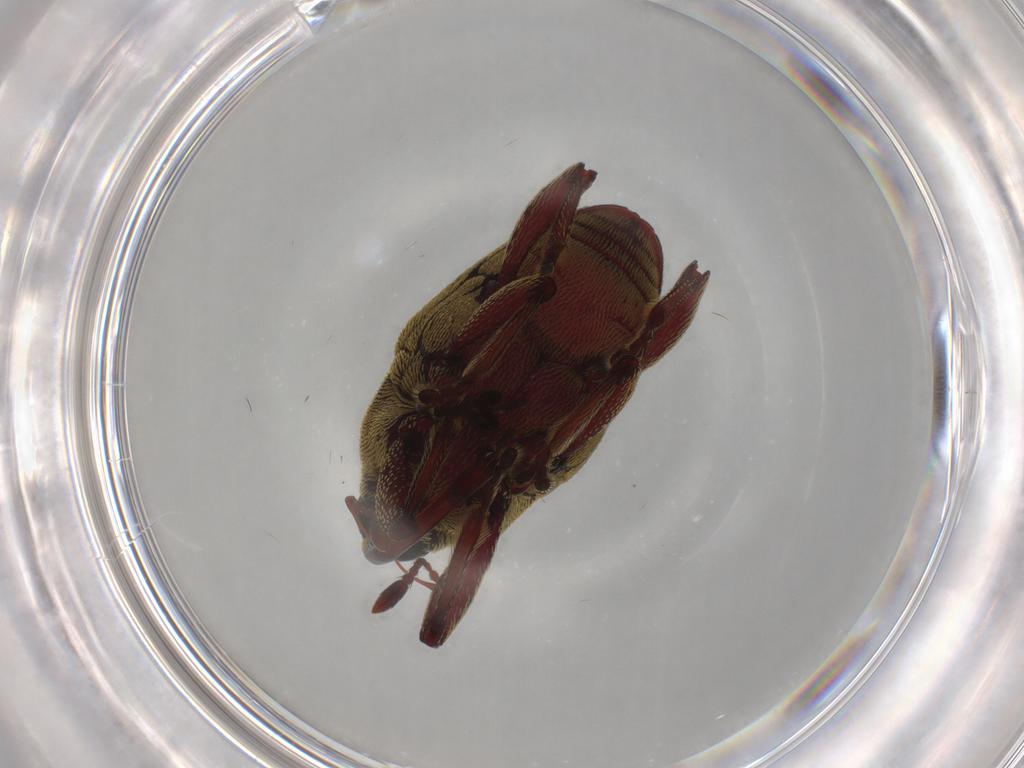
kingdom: Animalia
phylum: Arthropoda
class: Insecta
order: Coleoptera
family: Curculionidae
